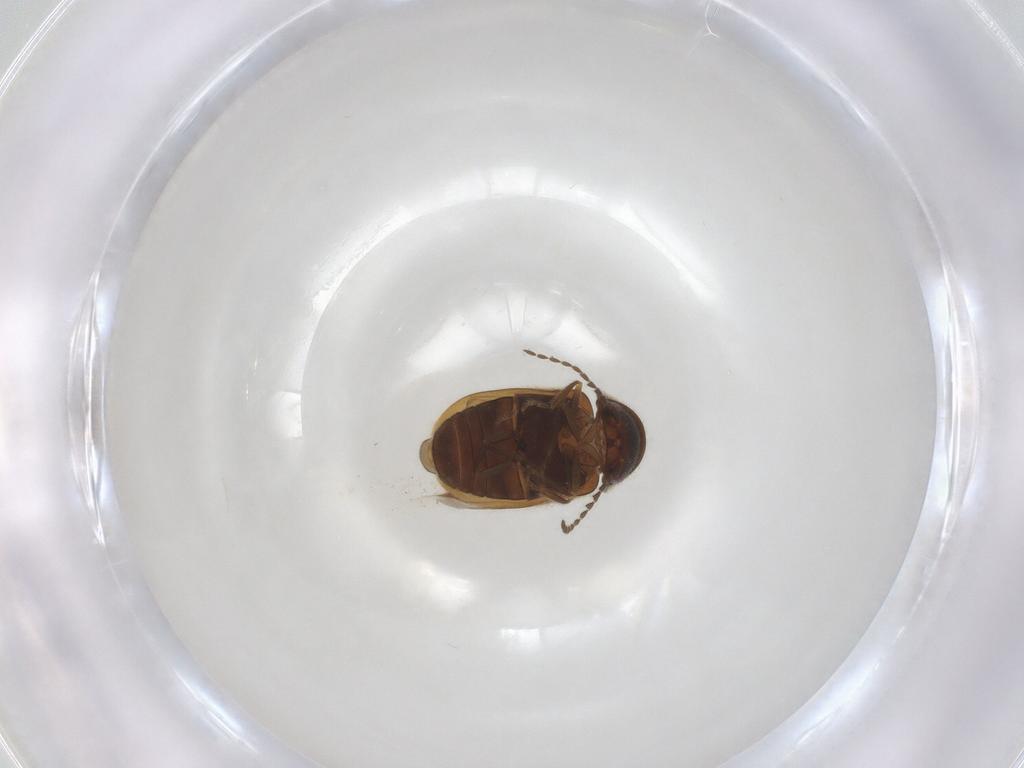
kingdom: Animalia
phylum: Arthropoda
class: Insecta
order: Coleoptera
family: Ptinidae
